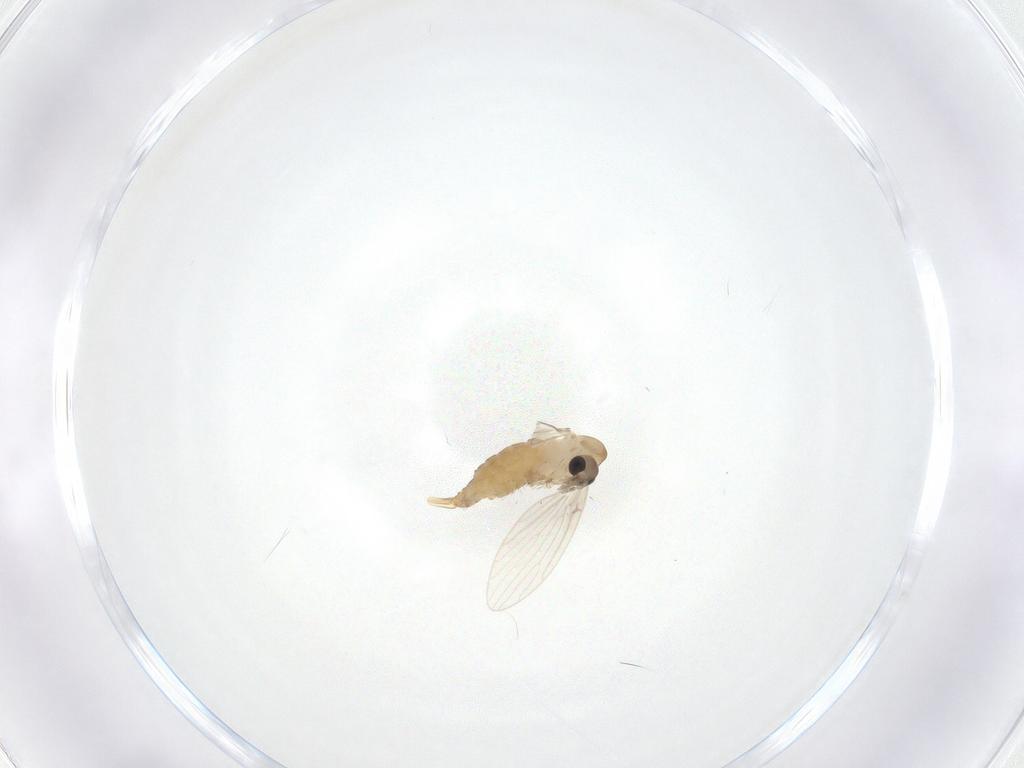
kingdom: Animalia
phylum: Arthropoda
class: Insecta
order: Diptera
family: Psychodidae
